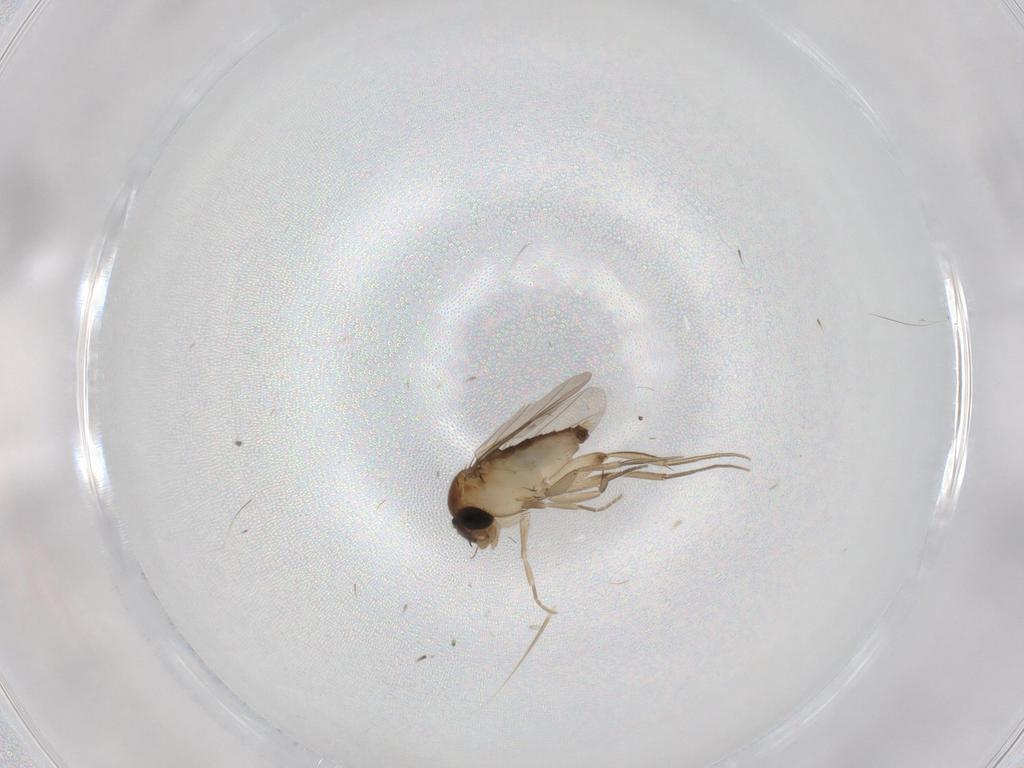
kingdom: Animalia
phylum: Arthropoda
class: Insecta
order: Diptera
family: Phoridae
